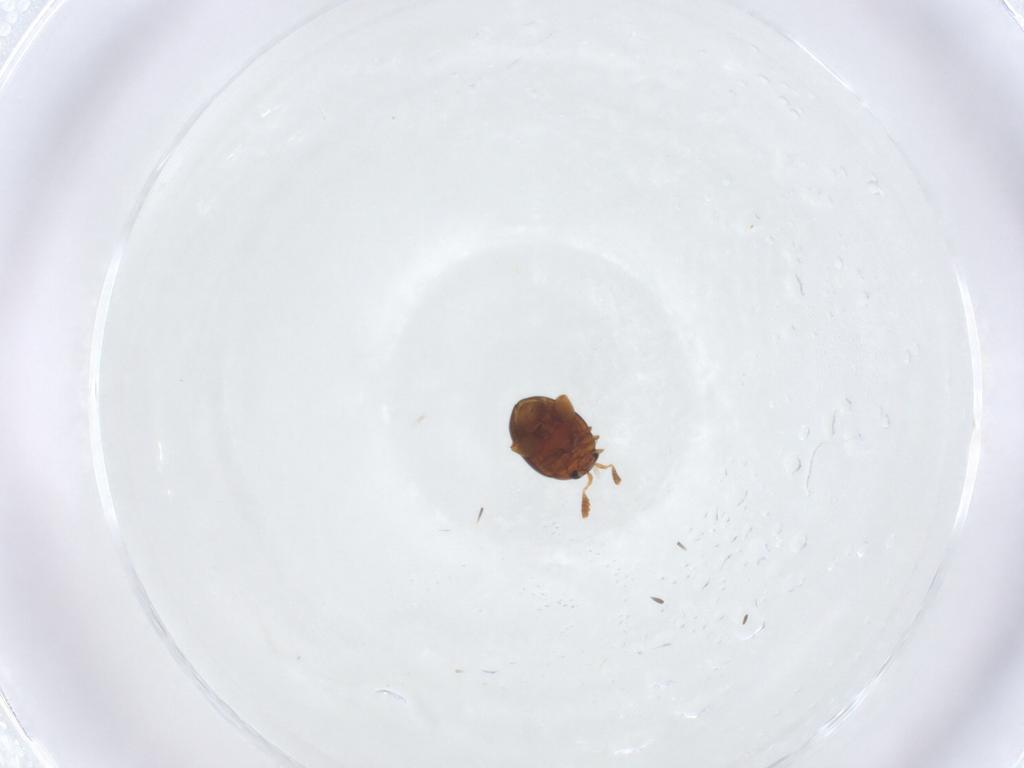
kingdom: Animalia
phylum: Arthropoda
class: Insecta
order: Coleoptera
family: Chrysomelidae
